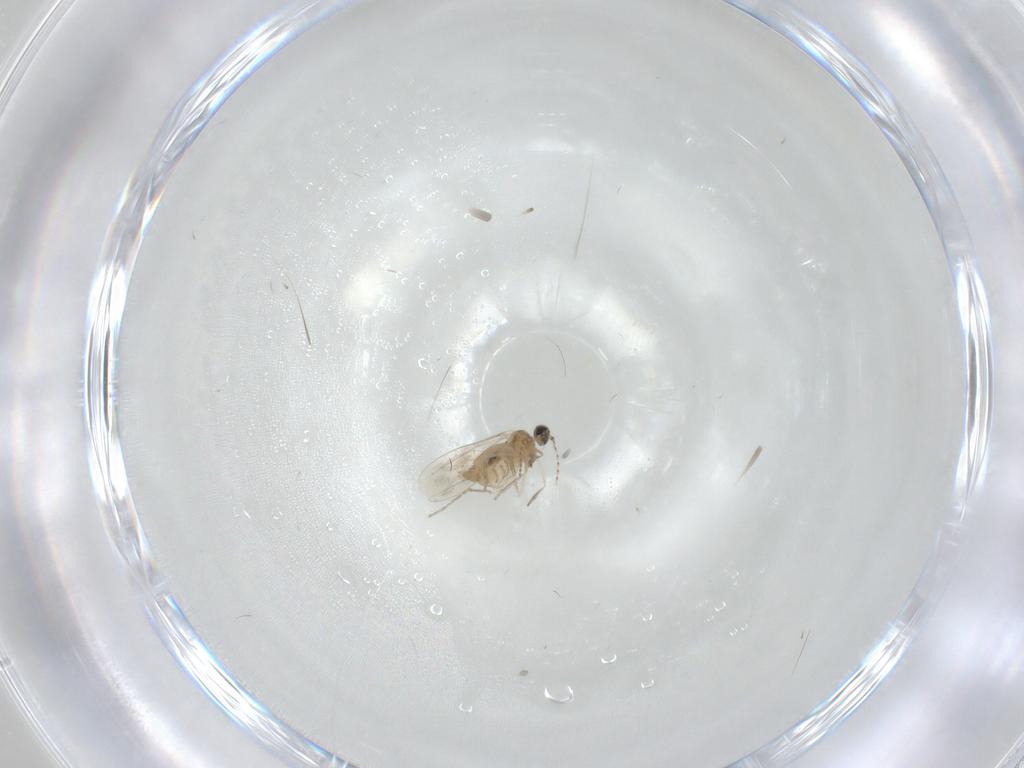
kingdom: Animalia
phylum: Arthropoda
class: Insecta
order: Diptera
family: Cecidomyiidae
